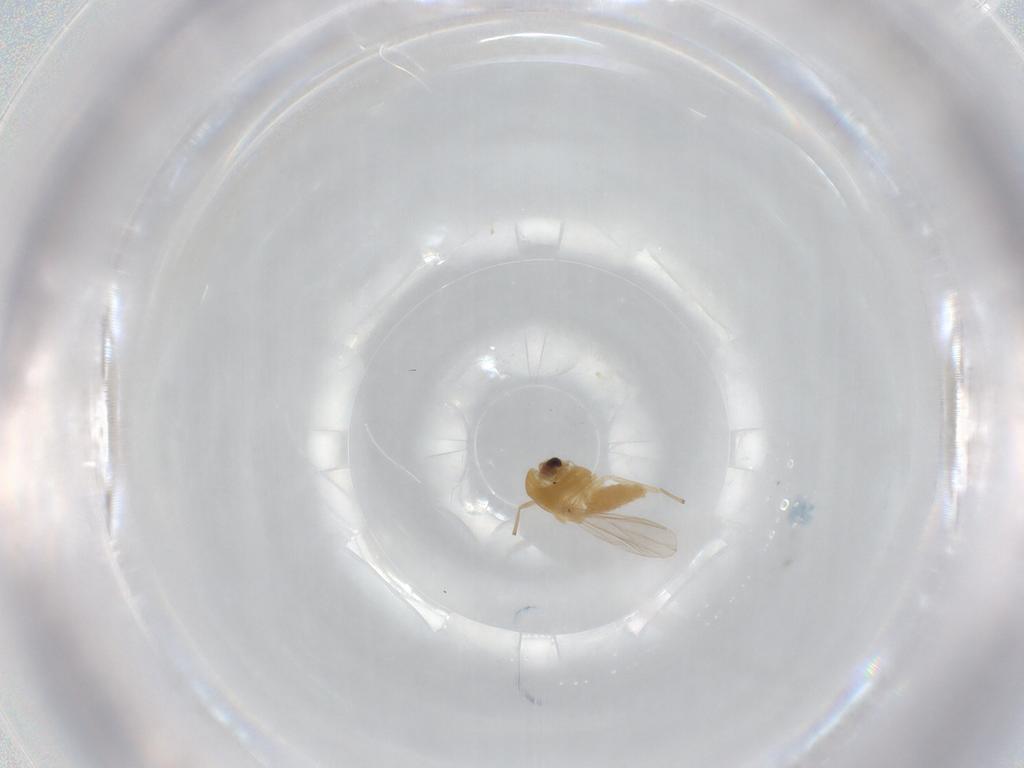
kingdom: Animalia
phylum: Arthropoda
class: Insecta
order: Diptera
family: Chironomidae
